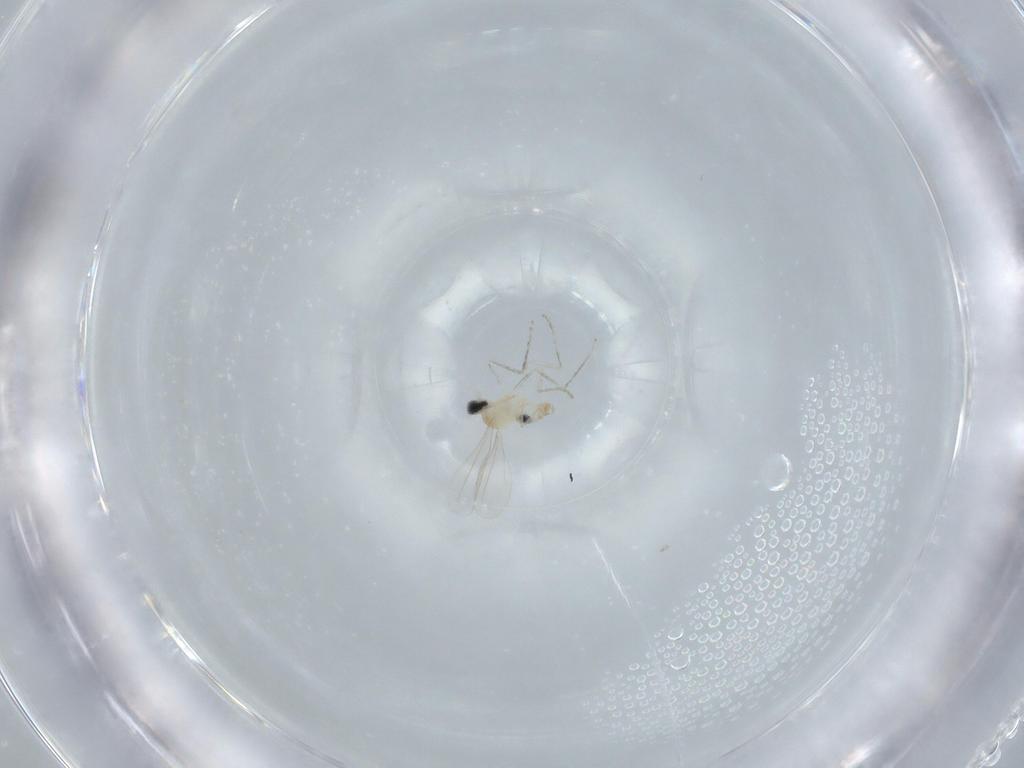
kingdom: Animalia
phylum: Arthropoda
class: Insecta
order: Diptera
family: Cecidomyiidae
